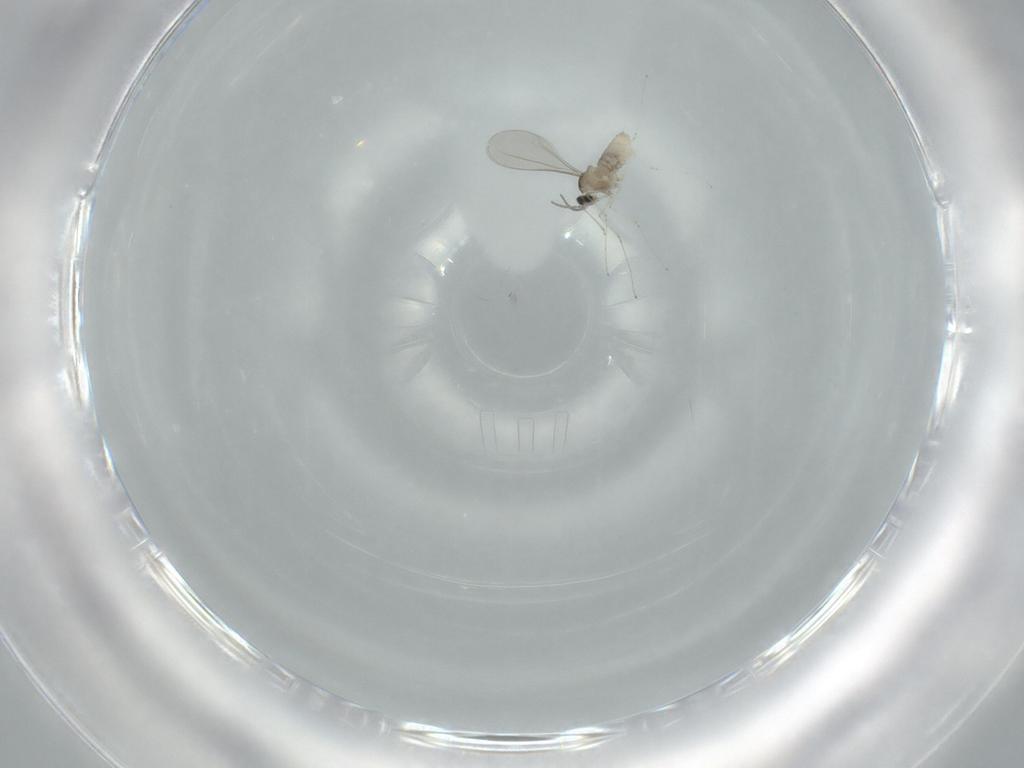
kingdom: Animalia
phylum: Arthropoda
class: Insecta
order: Diptera
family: Cecidomyiidae
